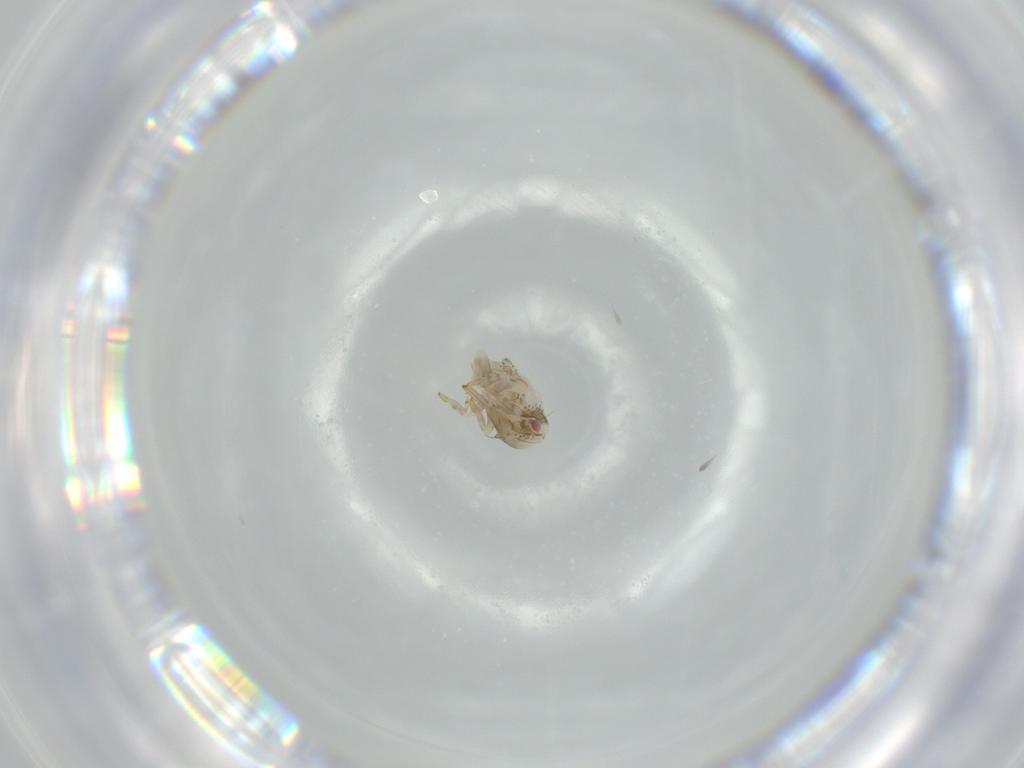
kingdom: Animalia
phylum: Arthropoda
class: Insecta
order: Hemiptera
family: Acanaloniidae
